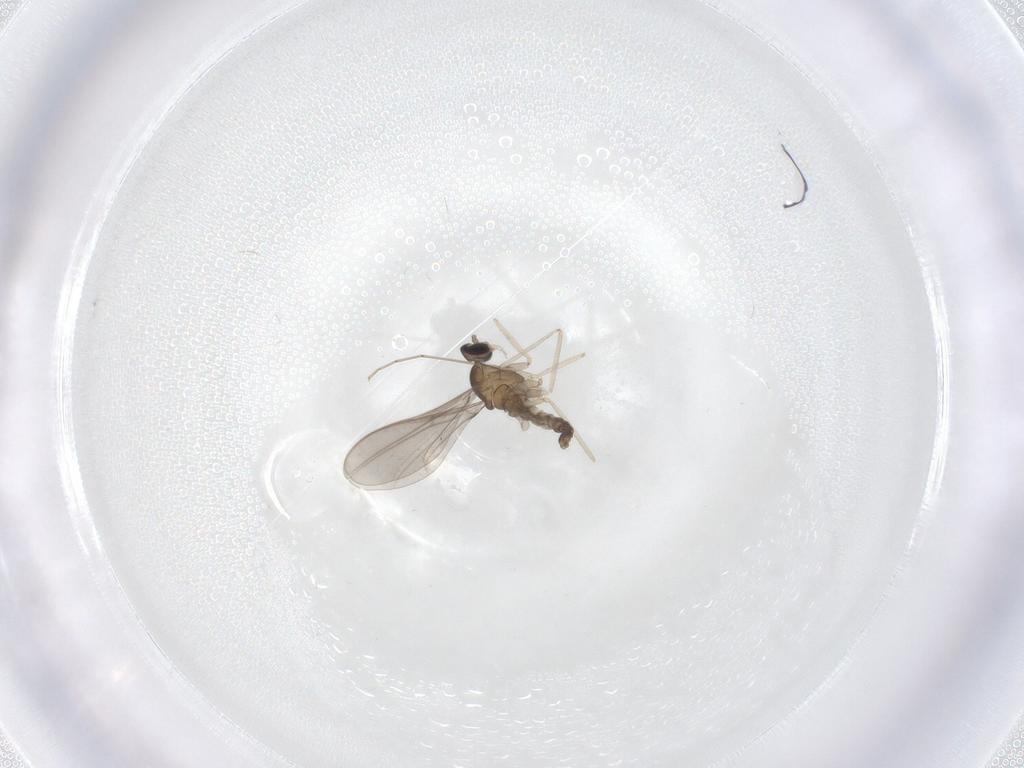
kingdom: Animalia
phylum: Arthropoda
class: Insecta
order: Diptera
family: Cecidomyiidae
